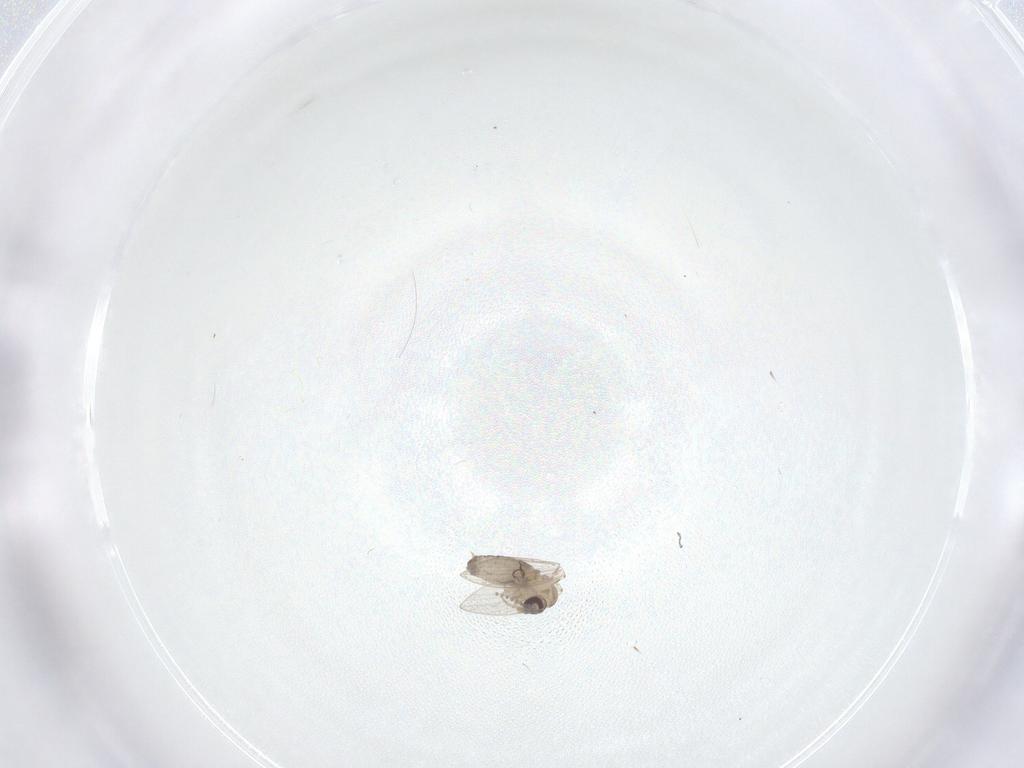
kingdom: Animalia
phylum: Arthropoda
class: Insecta
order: Diptera
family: Psychodidae
